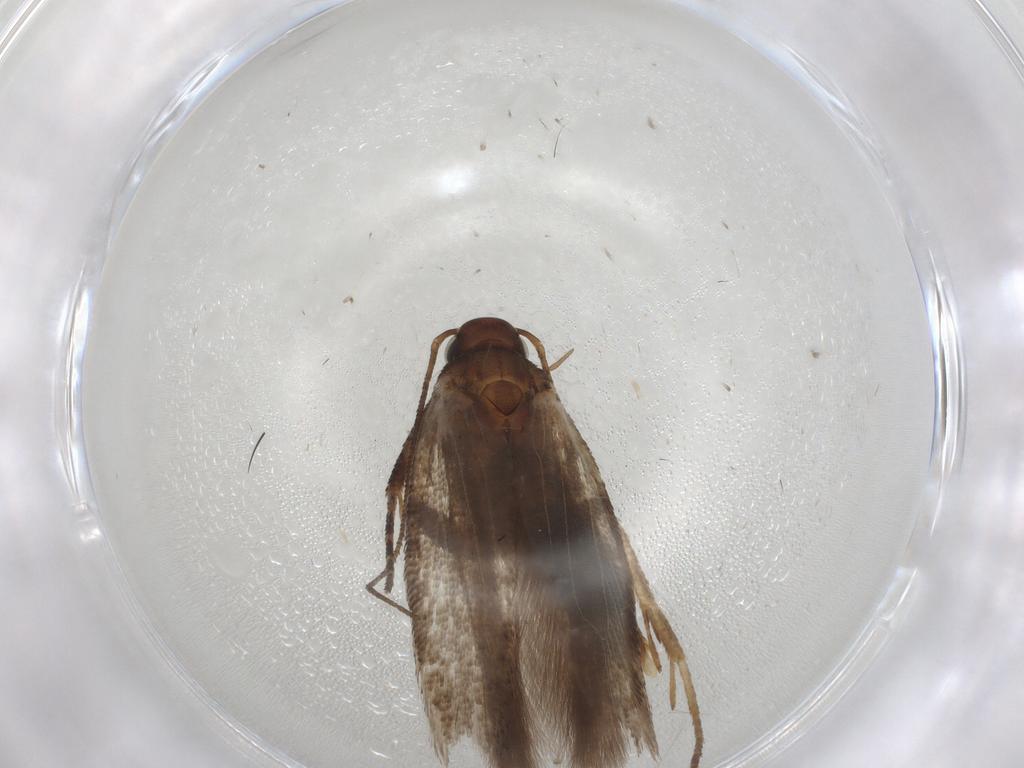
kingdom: Animalia
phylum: Arthropoda
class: Insecta
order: Lepidoptera
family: Gelechiidae
